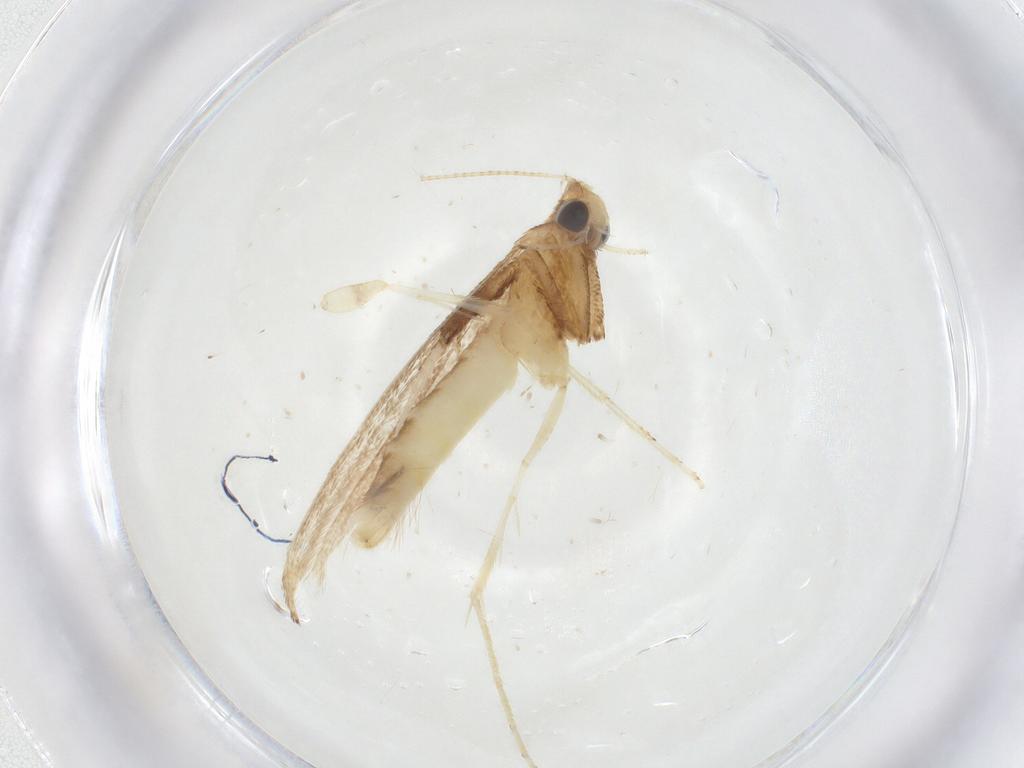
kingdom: Animalia
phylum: Arthropoda
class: Insecta
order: Lepidoptera
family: Gracillariidae
